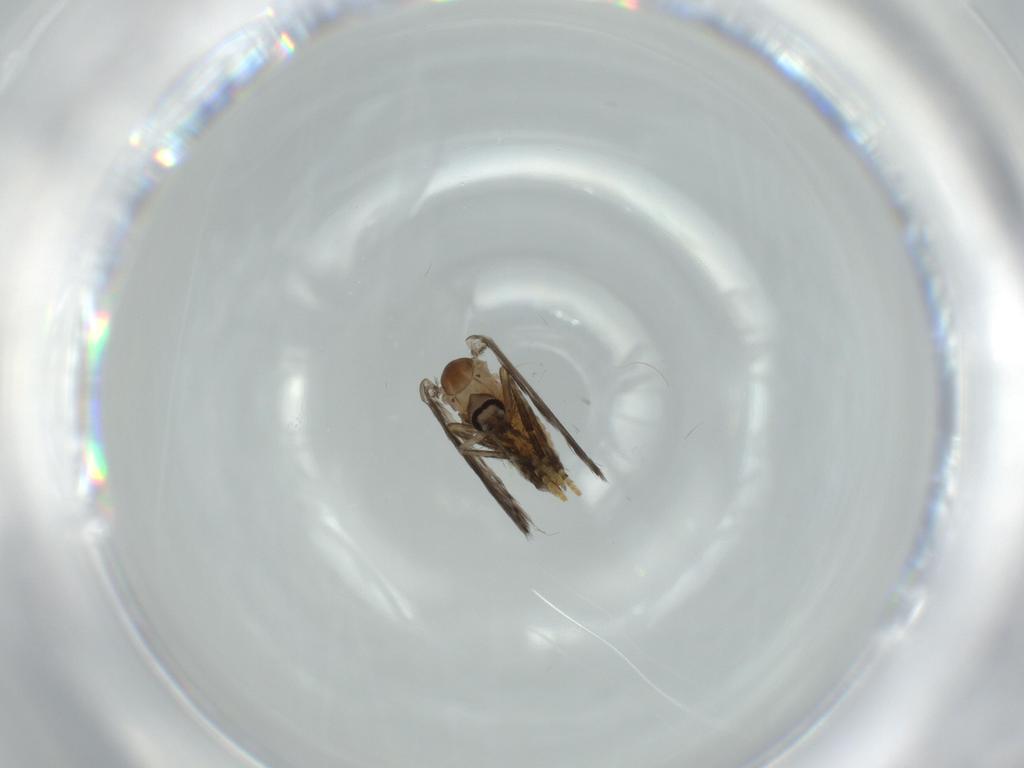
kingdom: Animalia
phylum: Arthropoda
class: Insecta
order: Diptera
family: Psychodidae
